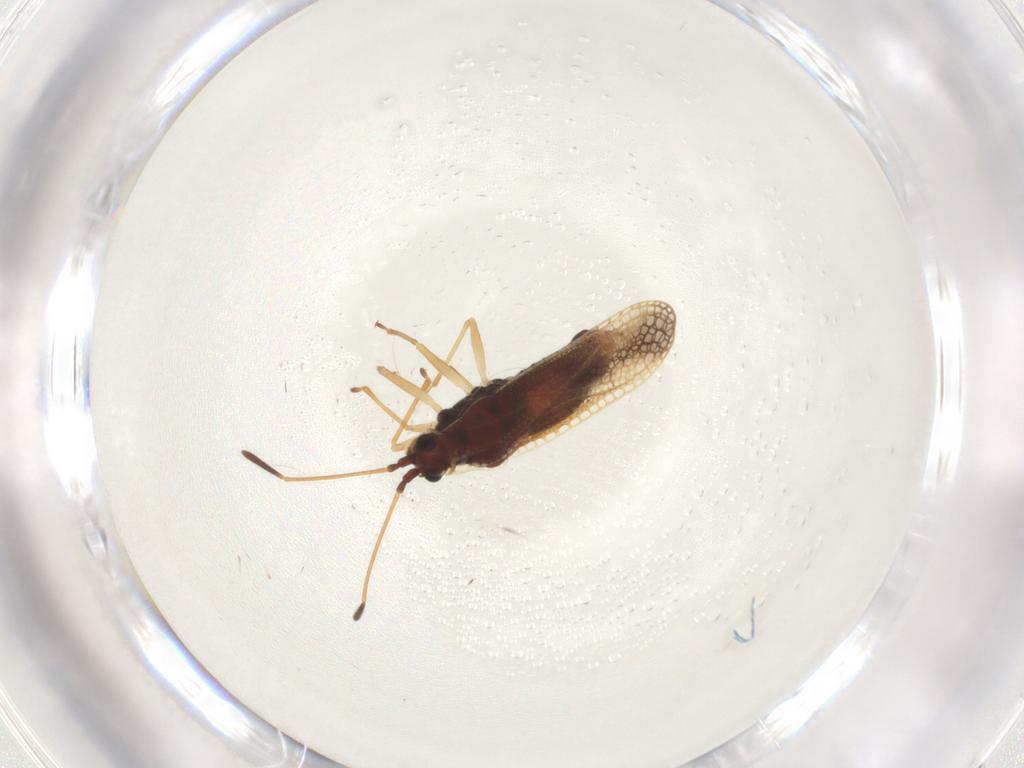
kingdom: Animalia
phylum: Arthropoda
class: Insecta
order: Hemiptera
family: Tingidae
